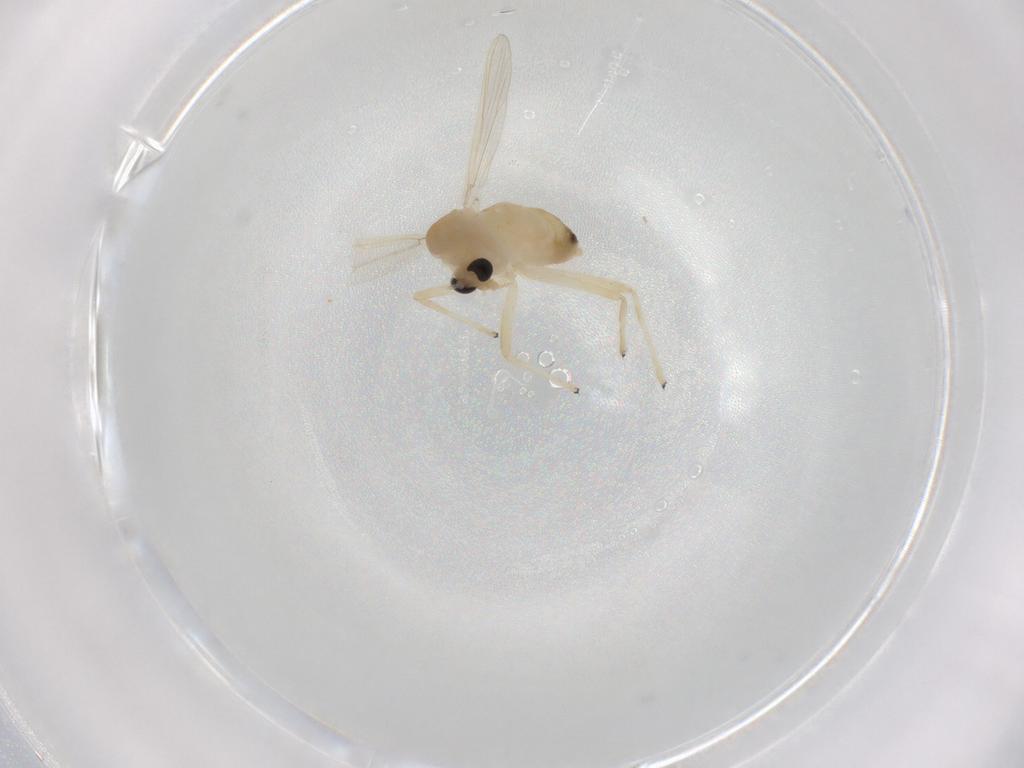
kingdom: Animalia
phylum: Arthropoda
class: Insecta
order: Diptera
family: Chironomidae
